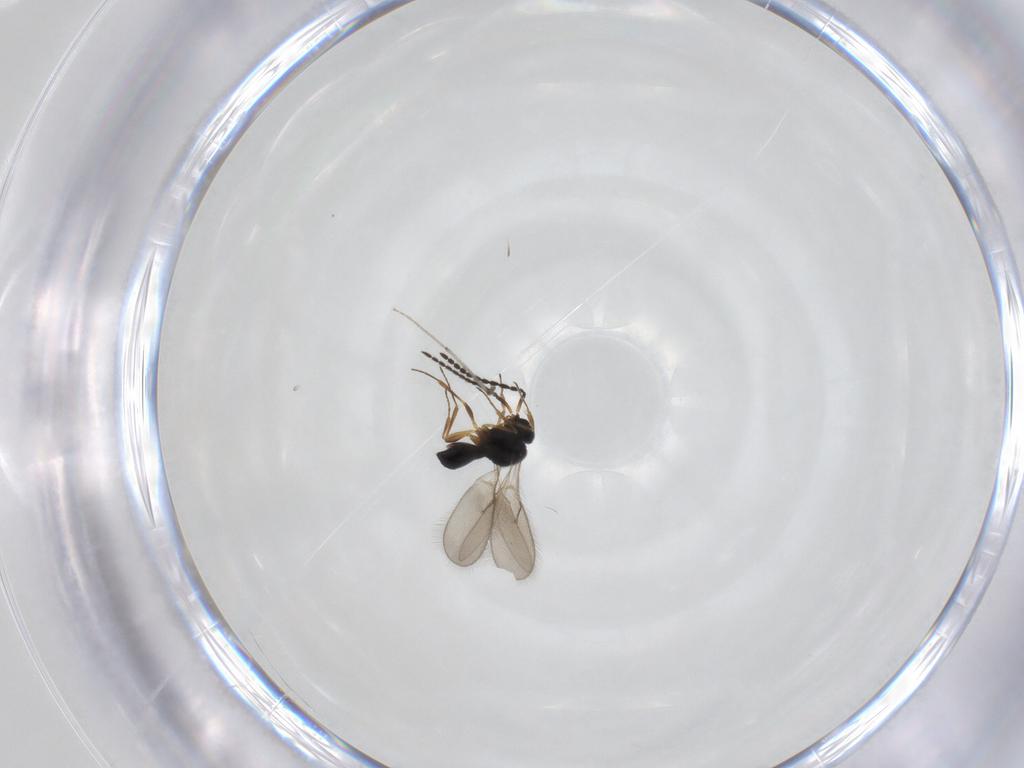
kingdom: Animalia
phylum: Arthropoda
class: Insecta
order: Hymenoptera
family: Scelionidae
